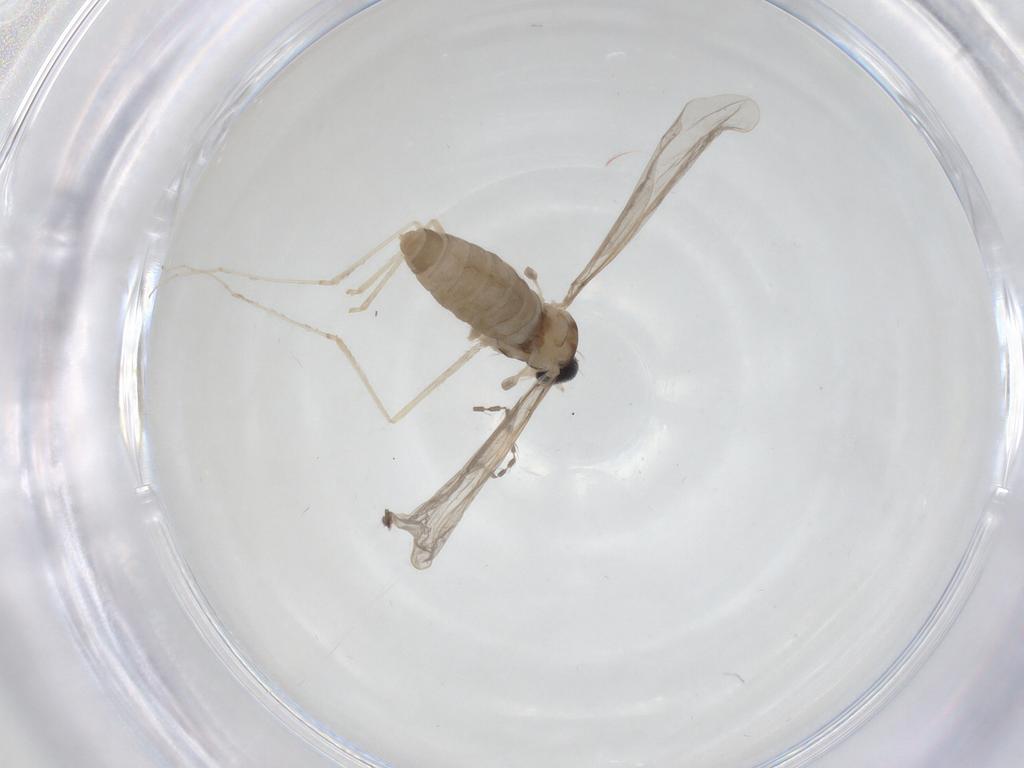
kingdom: Animalia
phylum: Arthropoda
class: Insecta
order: Diptera
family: Cecidomyiidae
